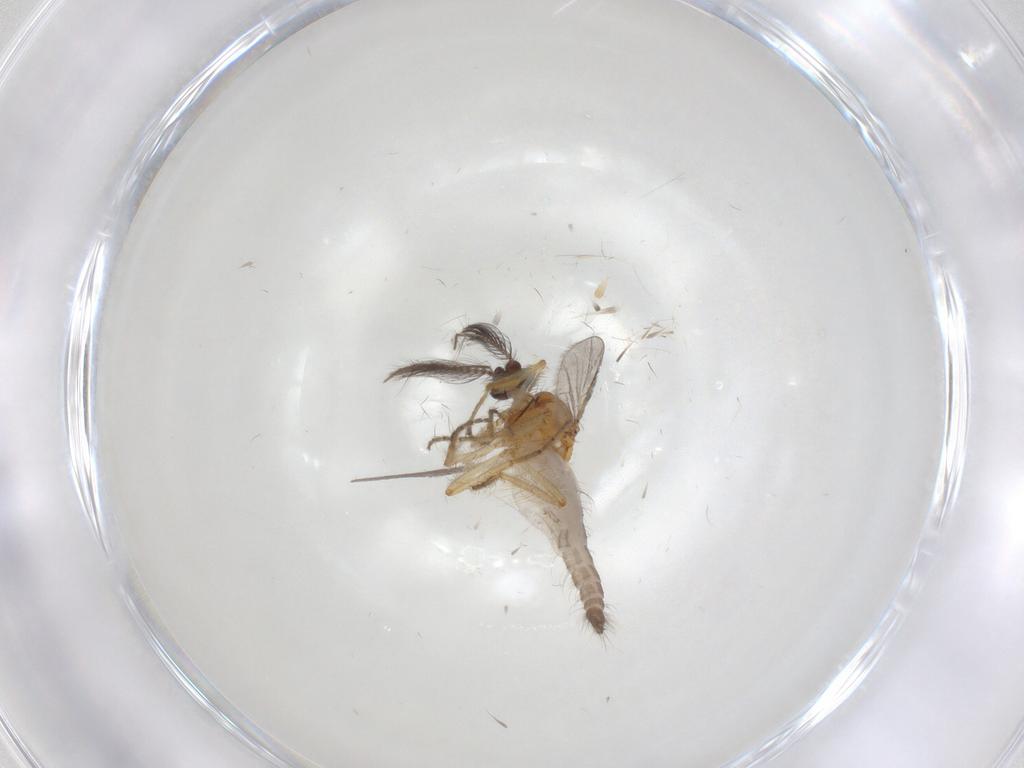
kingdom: Animalia
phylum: Arthropoda
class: Insecta
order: Diptera
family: Ceratopogonidae
